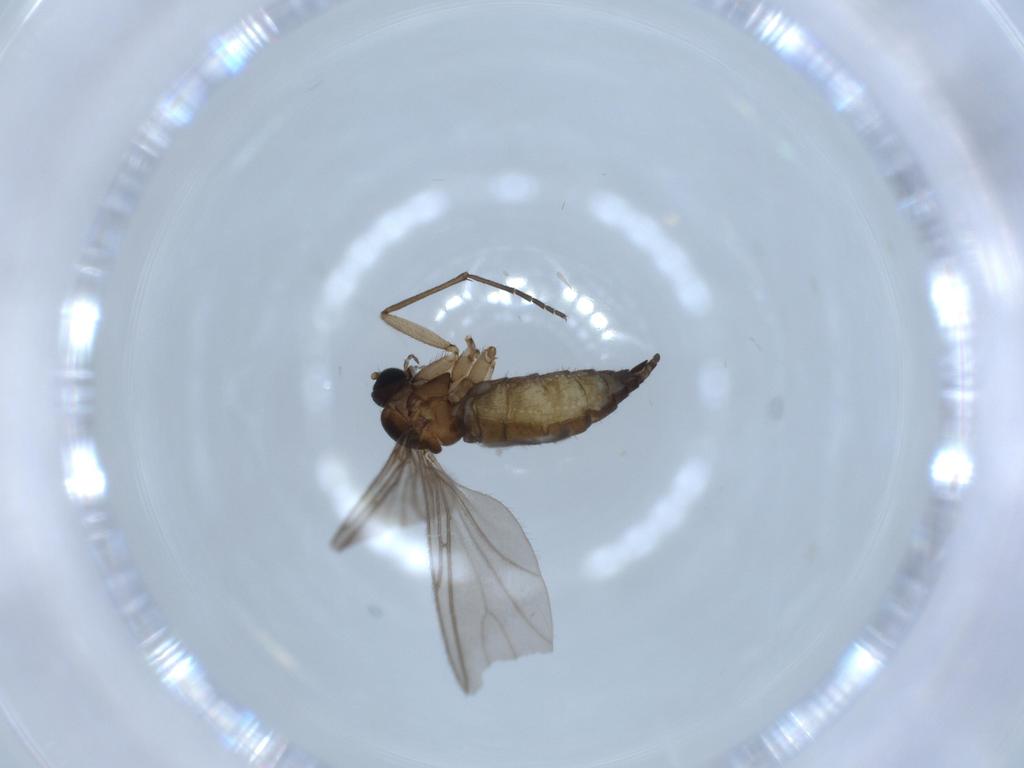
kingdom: Animalia
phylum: Arthropoda
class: Insecta
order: Diptera
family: Sciaridae
